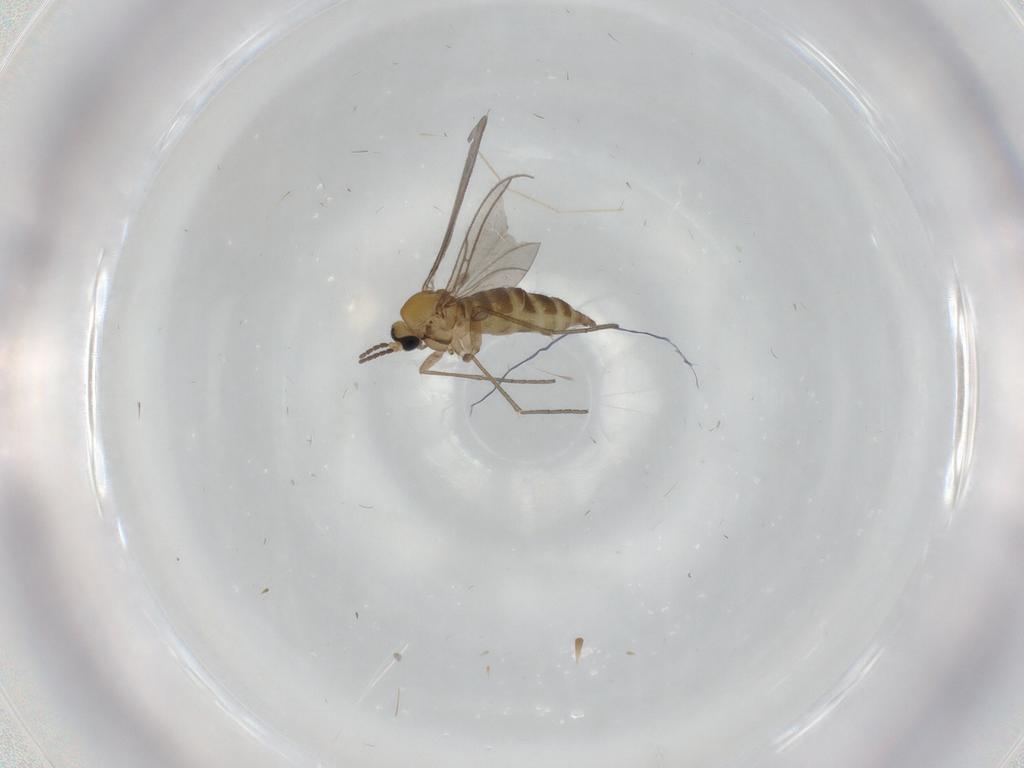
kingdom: Animalia
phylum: Arthropoda
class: Insecta
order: Diptera
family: Sciaridae
